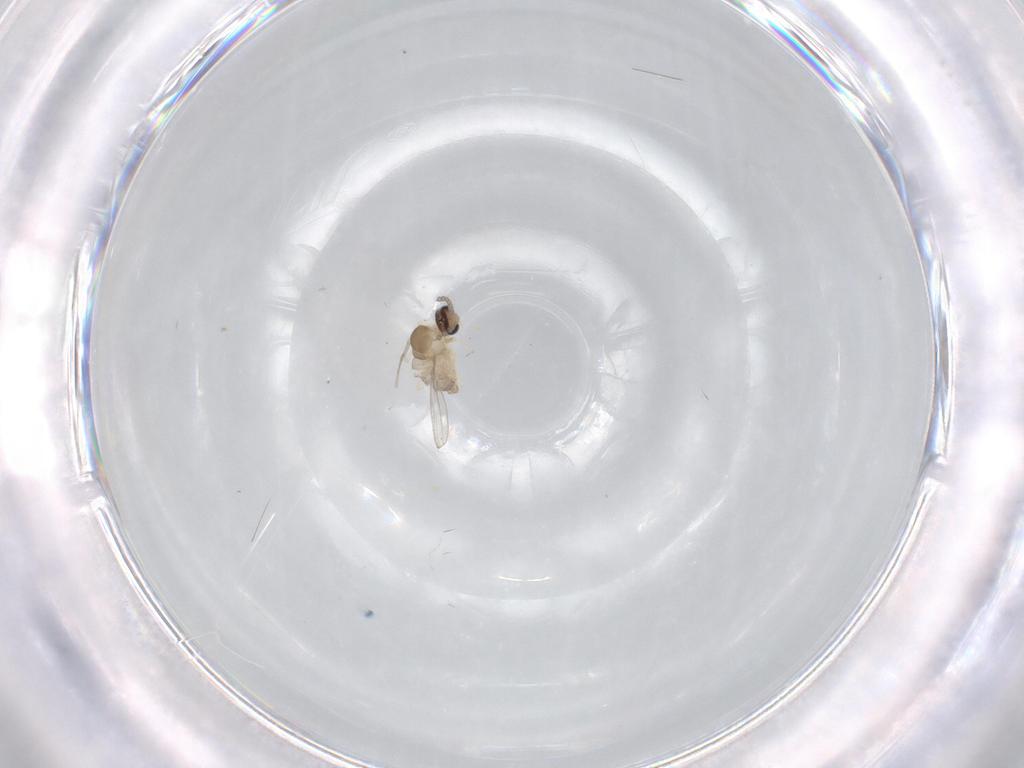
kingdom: Animalia
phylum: Arthropoda
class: Insecta
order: Diptera
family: Cecidomyiidae
